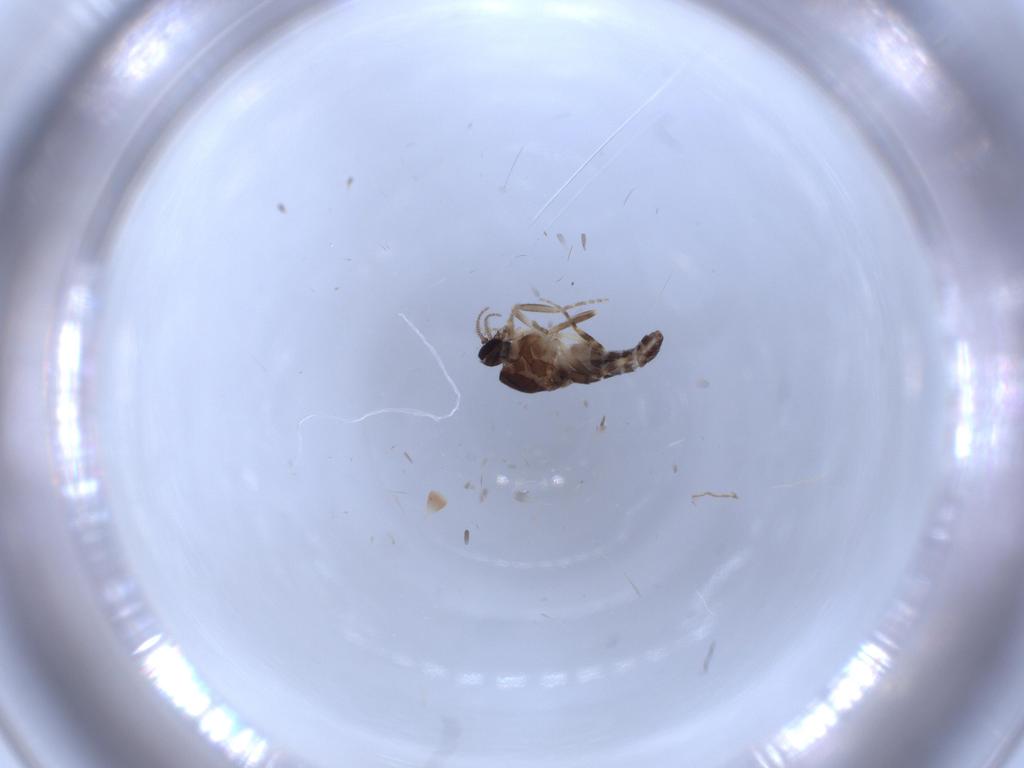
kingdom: Animalia
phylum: Arthropoda
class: Insecta
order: Diptera
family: Ceratopogonidae
